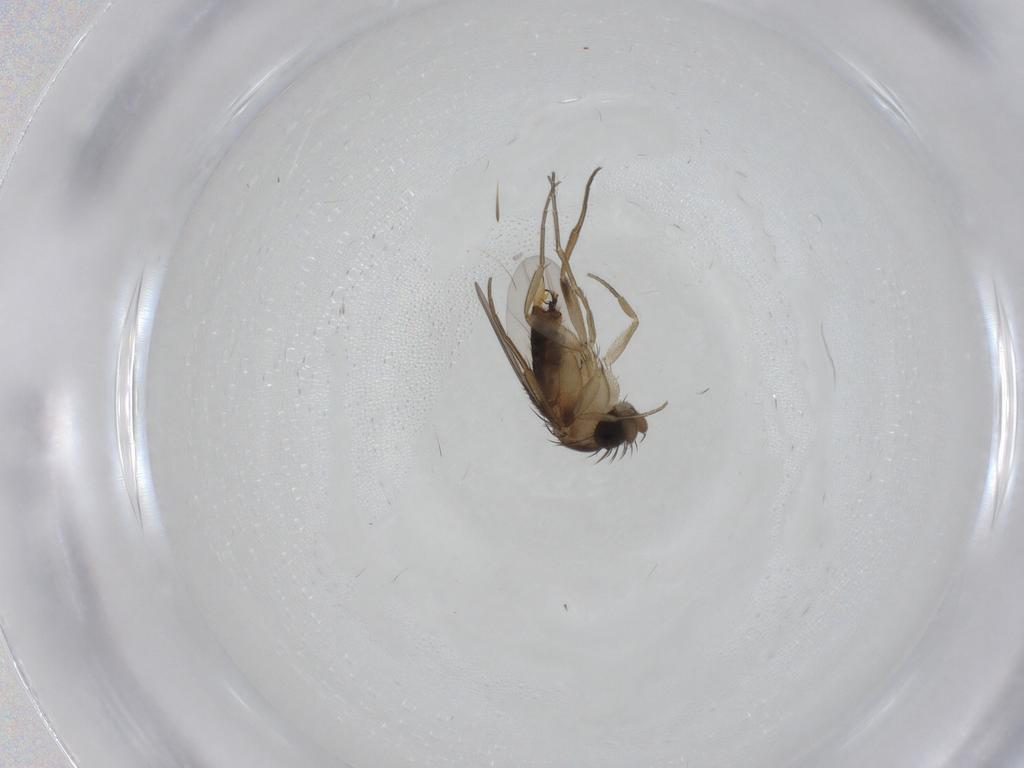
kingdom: Animalia
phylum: Arthropoda
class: Insecta
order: Diptera
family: Phoridae
